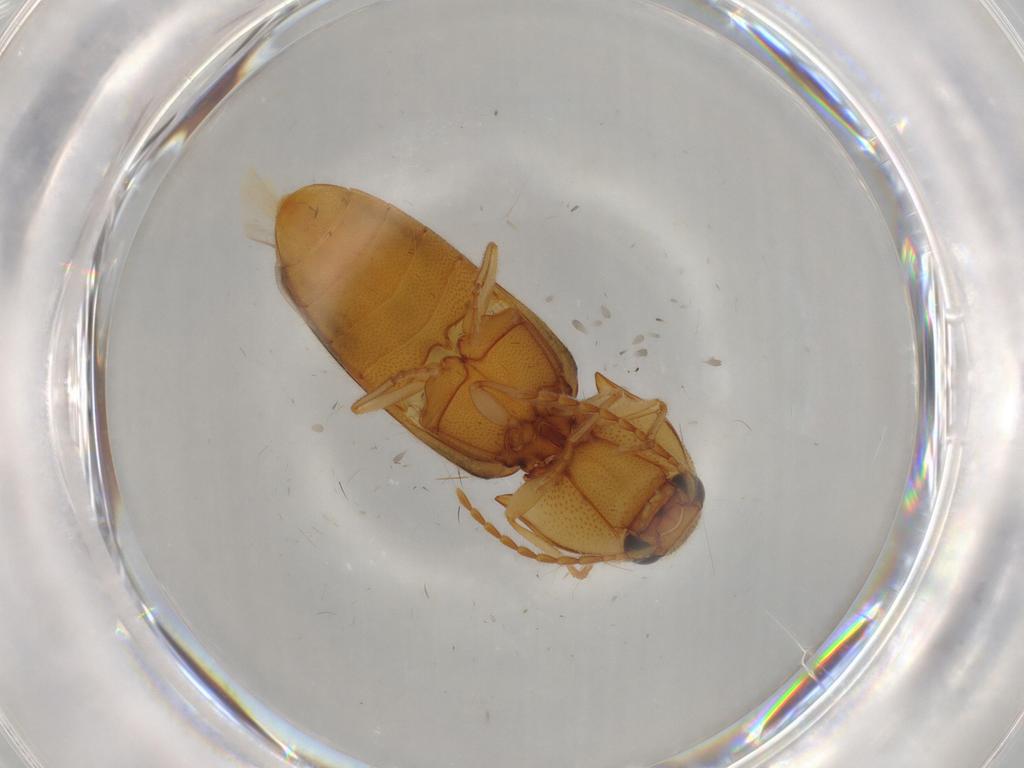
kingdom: Animalia
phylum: Arthropoda
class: Insecta
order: Coleoptera
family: Elateridae
